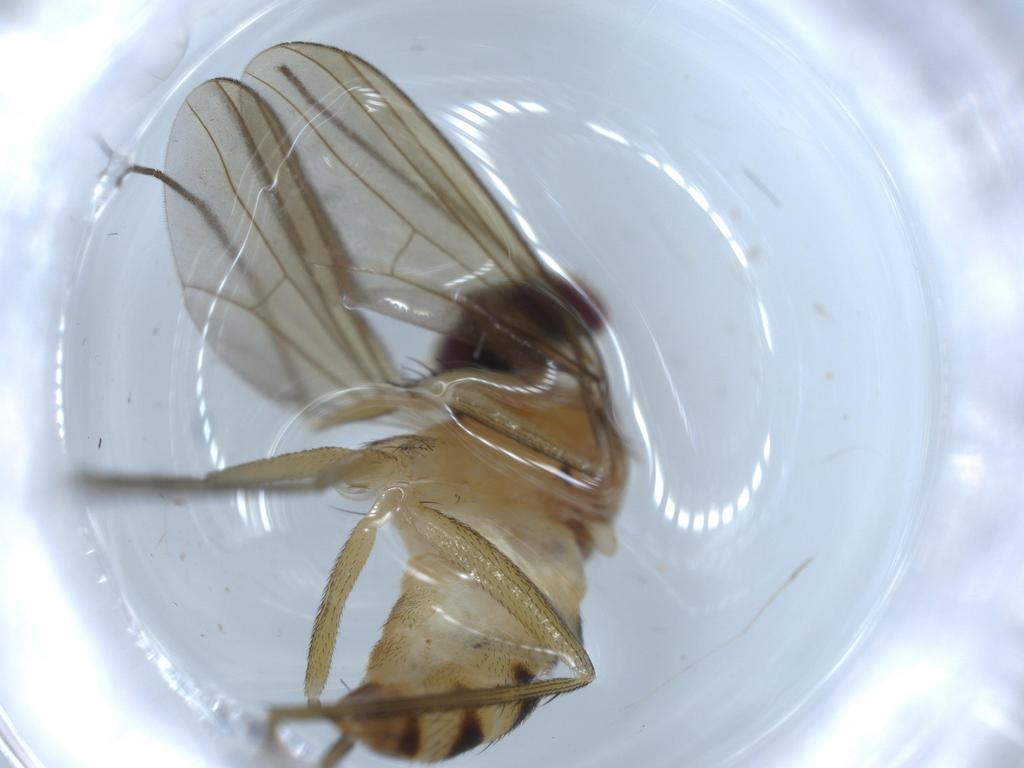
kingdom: Animalia
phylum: Arthropoda
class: Insecta
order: Diptera
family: Dolichopodidae
